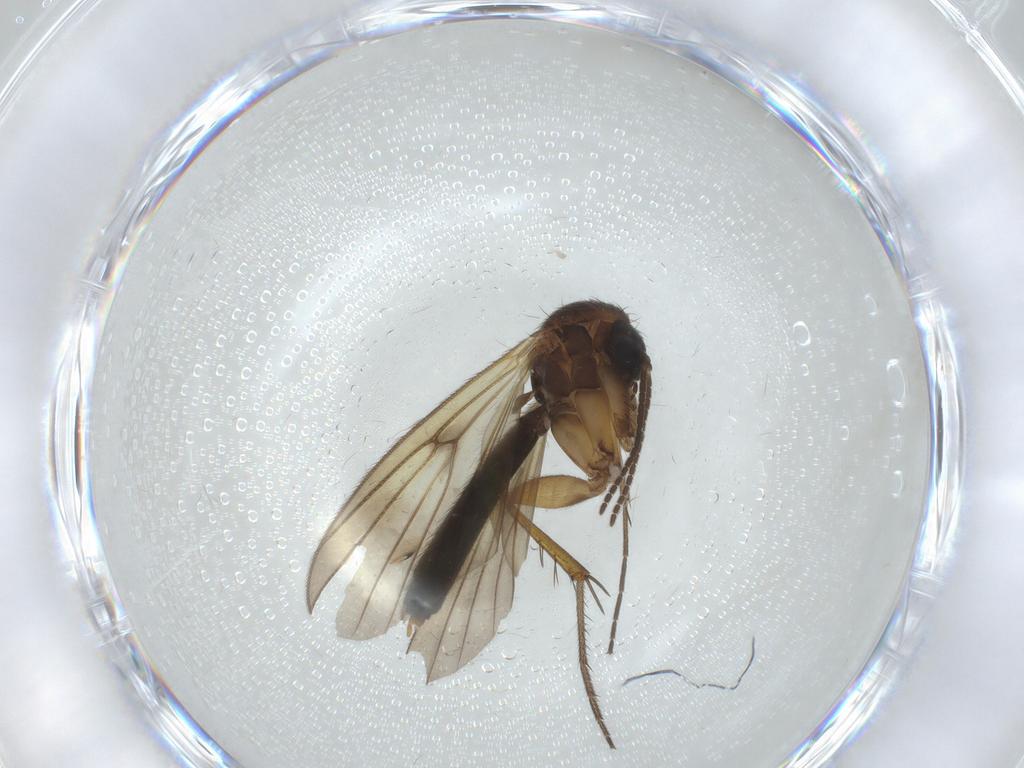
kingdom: Animalia
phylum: Arthropoda
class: Insecta
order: Diptera
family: Mycetophilidae
